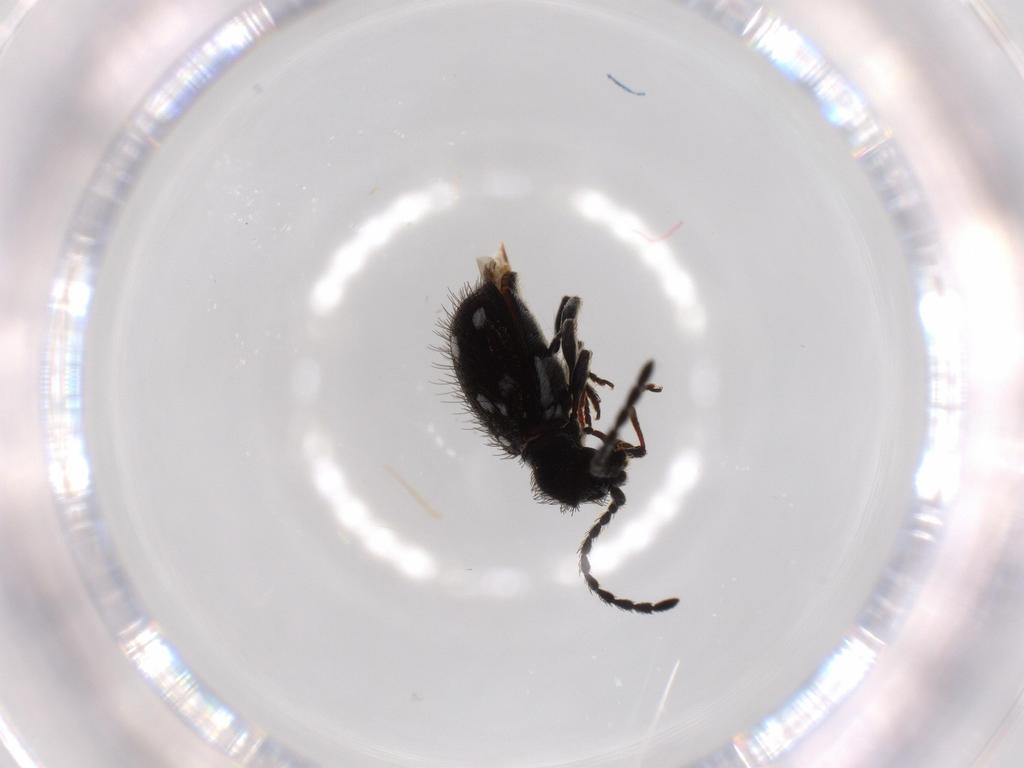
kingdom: Animalia
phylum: Arthropoda
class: Insecta
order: Coleoptera
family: Ptinidae
